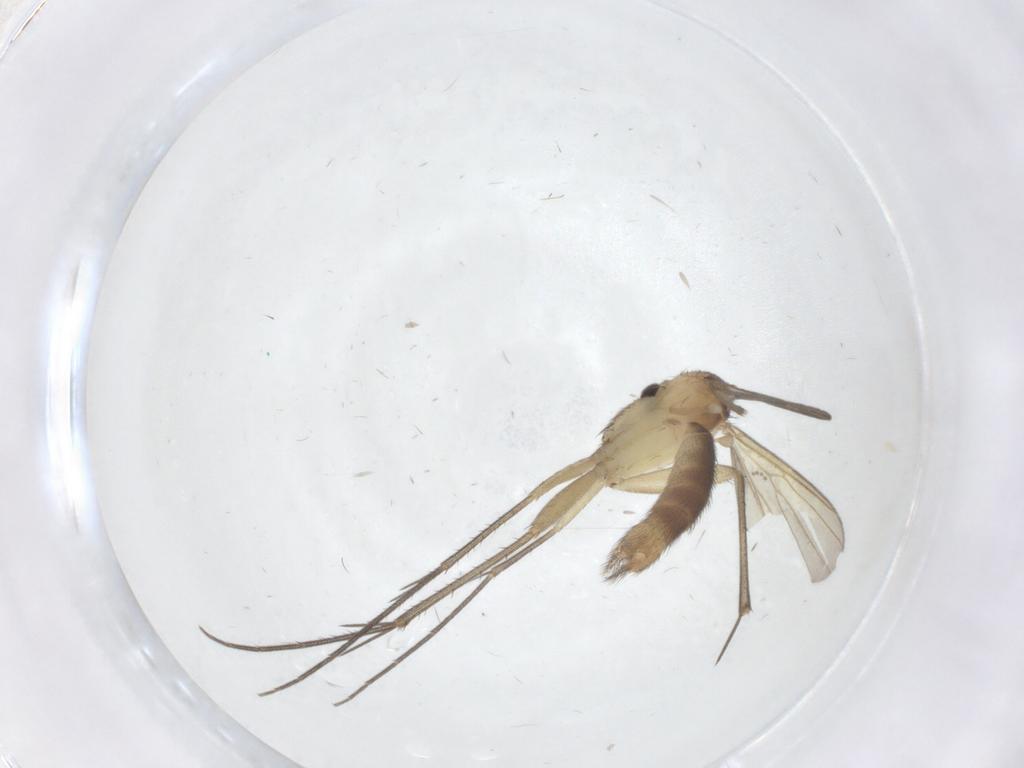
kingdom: Animalia
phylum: Arthropoda
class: Insecta
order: Diptera
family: Mycetophilidae
